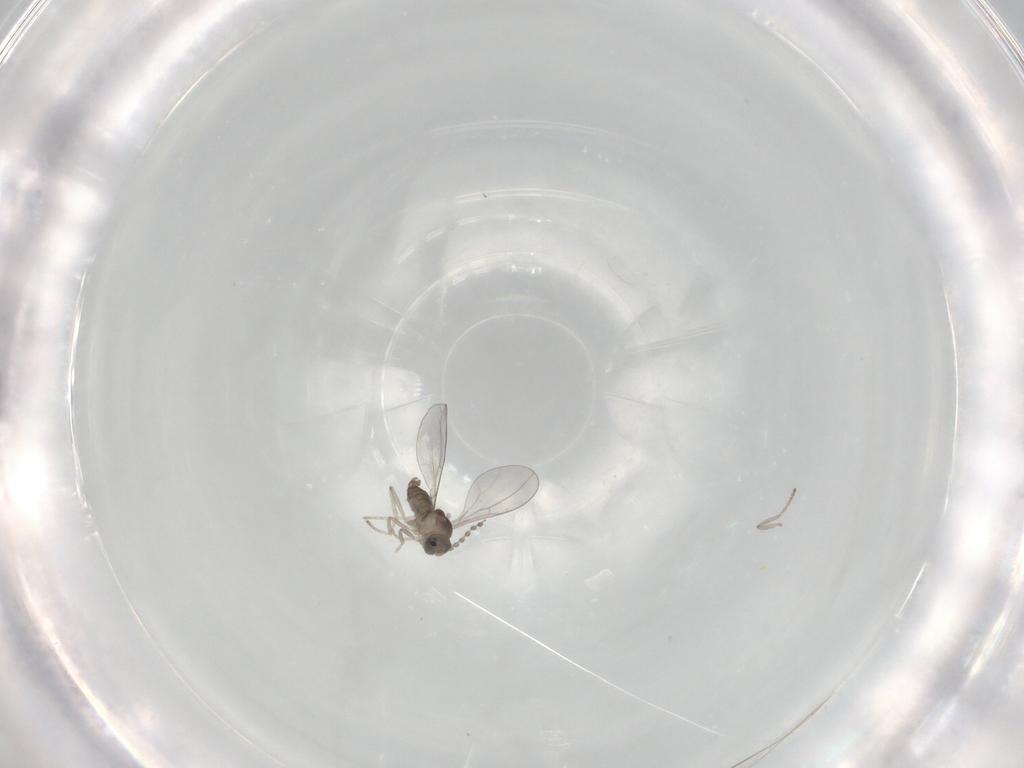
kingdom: Animalia
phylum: Arthropoda
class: Insecta
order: Diptera
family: Cecidomyiidae
